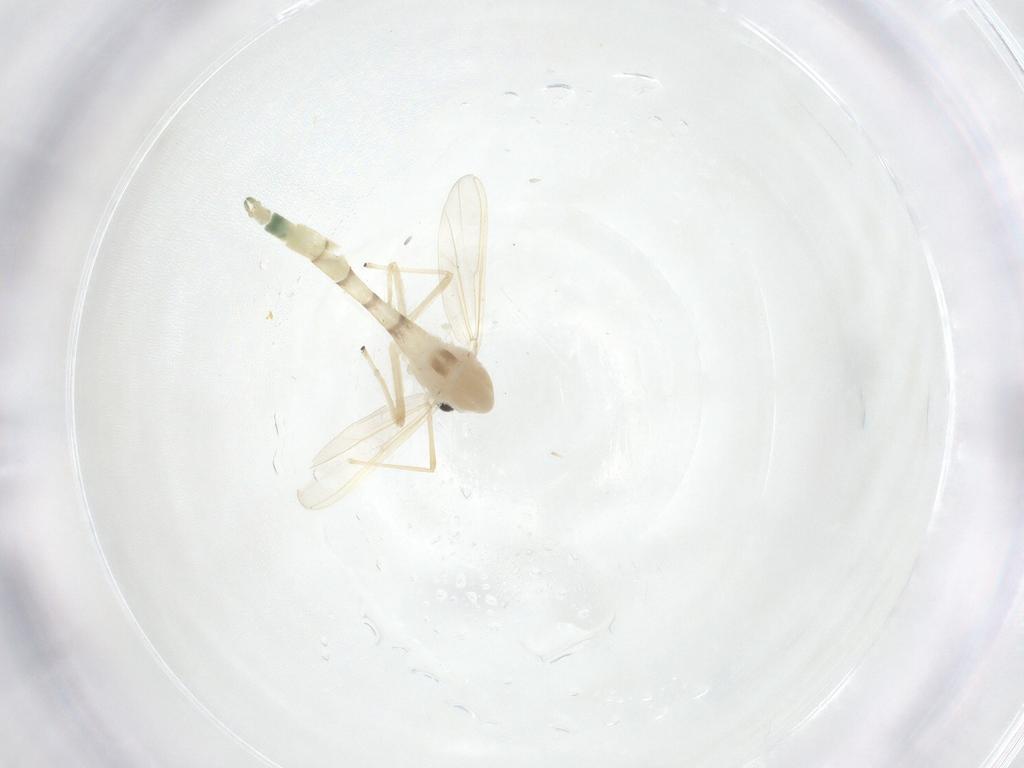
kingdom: Animalia
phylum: Arthropoda
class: Insecta
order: Diptera
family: Chironomidae
